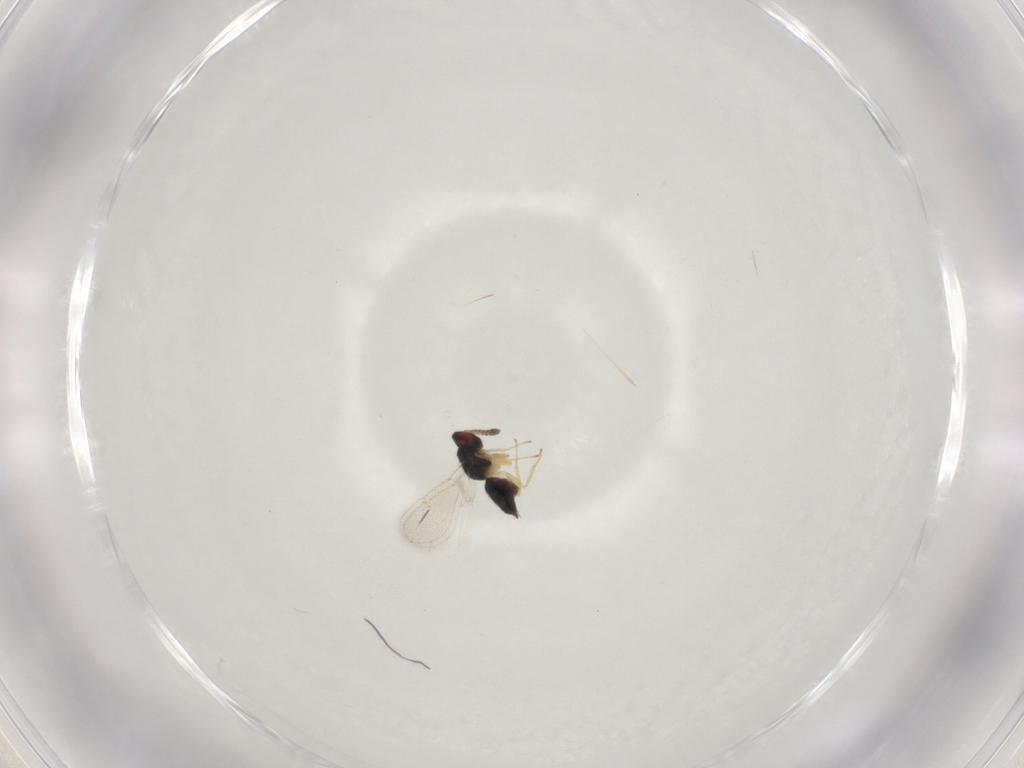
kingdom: Animalia
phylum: Arthropoda
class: Insecta
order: Hymenoptera
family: Tetracampidae
